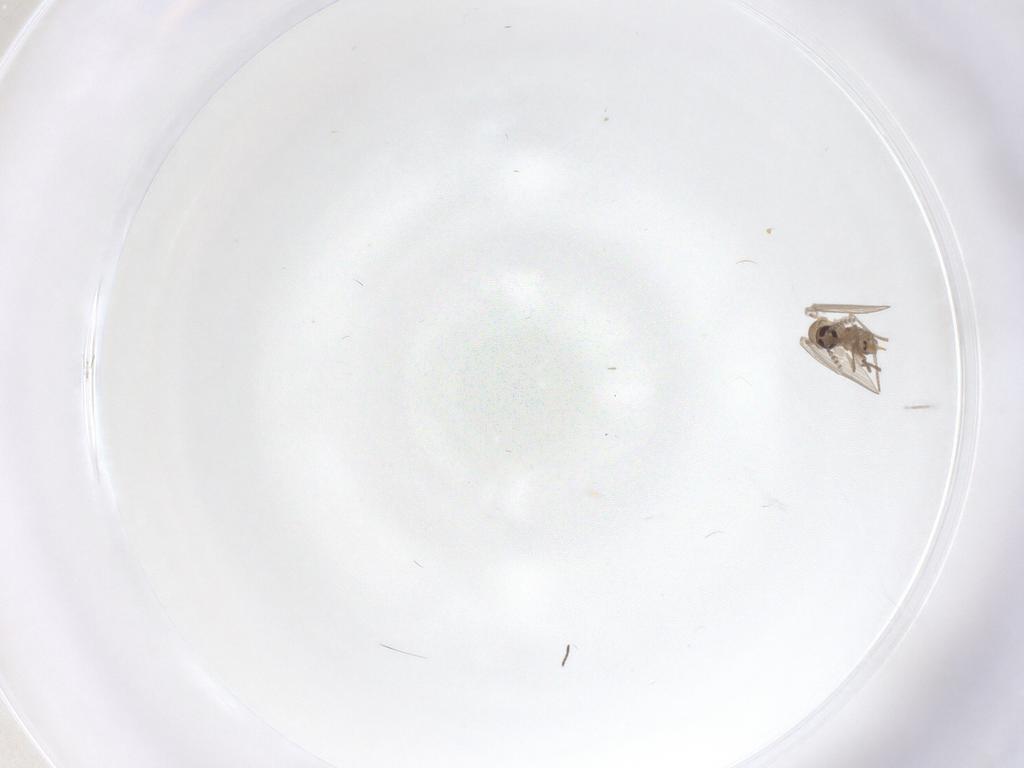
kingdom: Animalia
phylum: Arthropoda
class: Insecta
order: Diptera
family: Psychodidae
